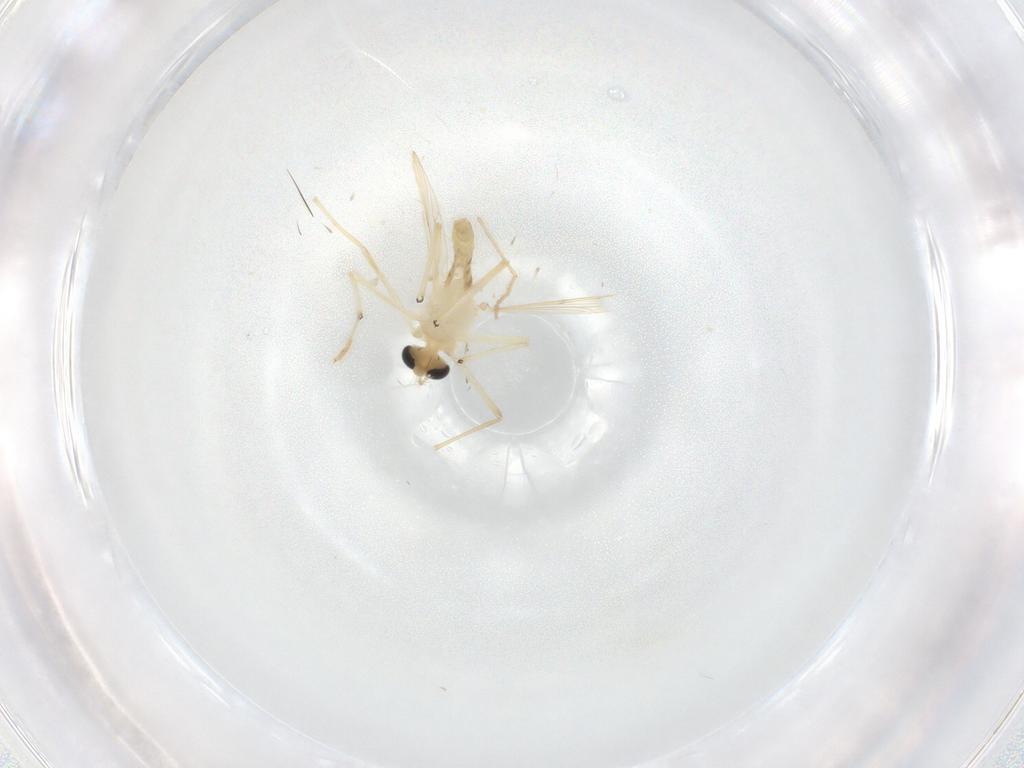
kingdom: Animalia
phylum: Arthropoda
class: Insecta
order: Diptera
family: Chironomidae
